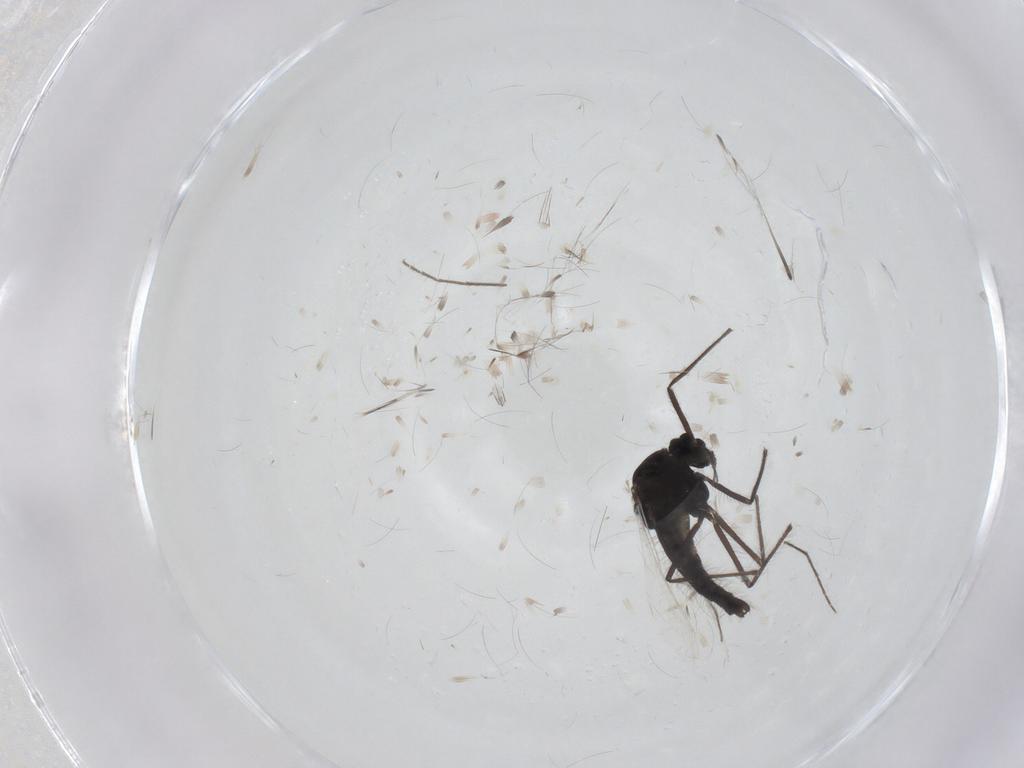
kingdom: Animalia
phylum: Arthropoda
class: Insecta
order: Diptera
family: Chironomidae
